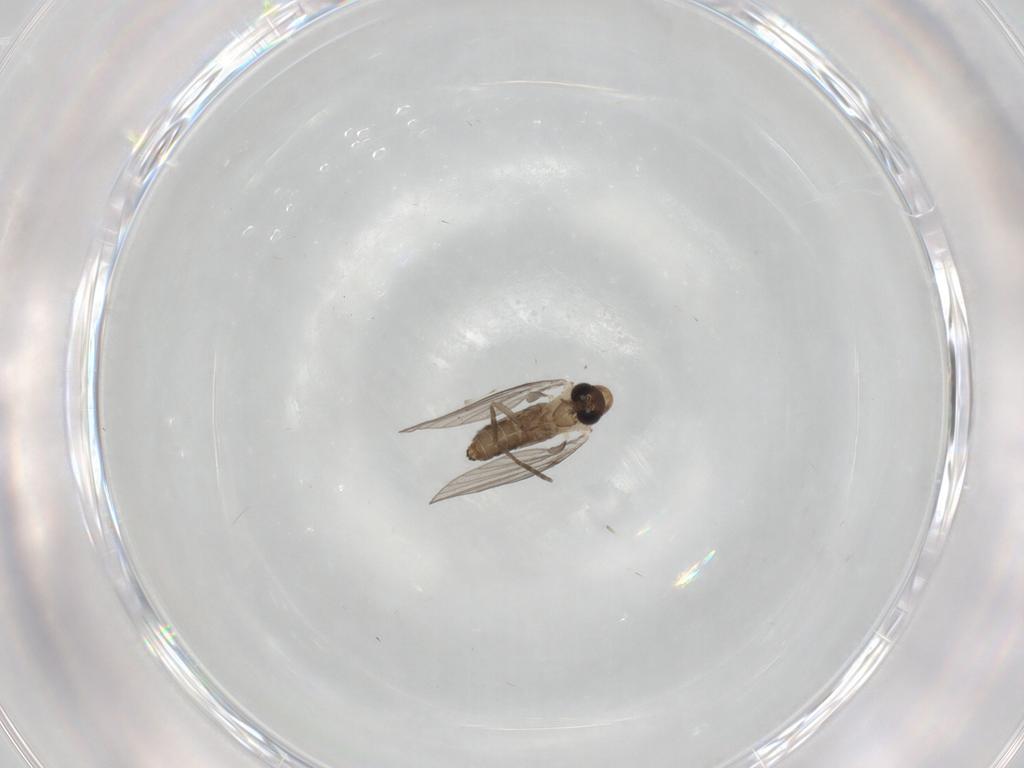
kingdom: Animalia
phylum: Arthropoda
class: Insecta
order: Diptera
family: Psychodidae
